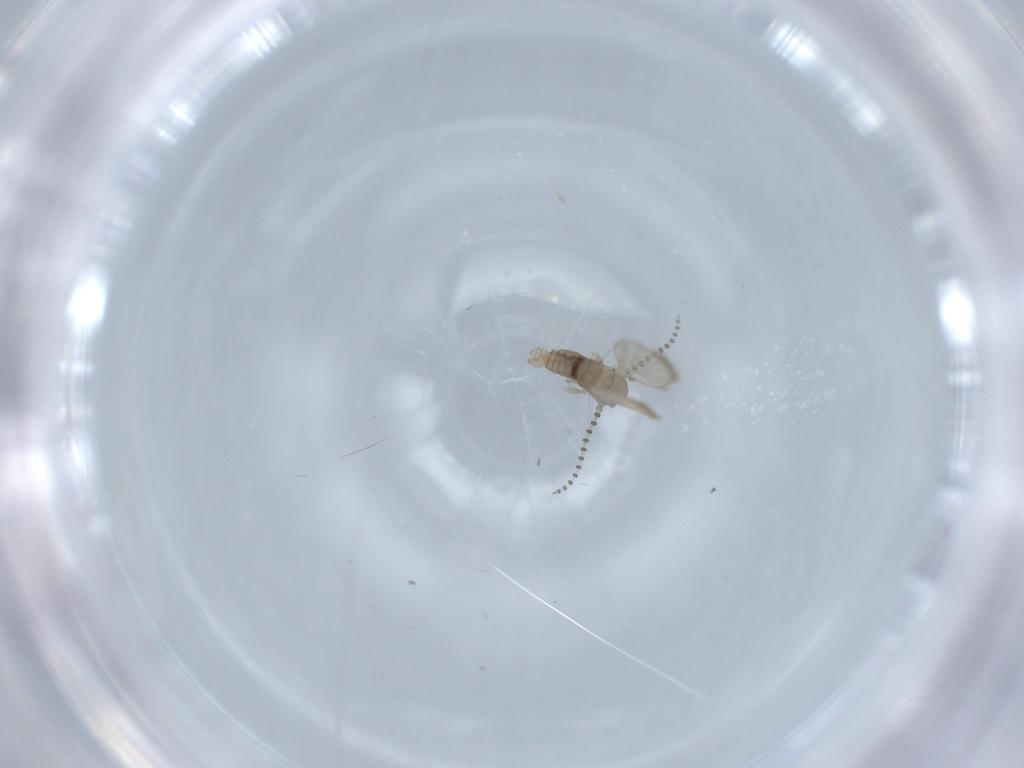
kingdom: Animalia
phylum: Arthropoda
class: Insecta
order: Diptera
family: Psychodidae
